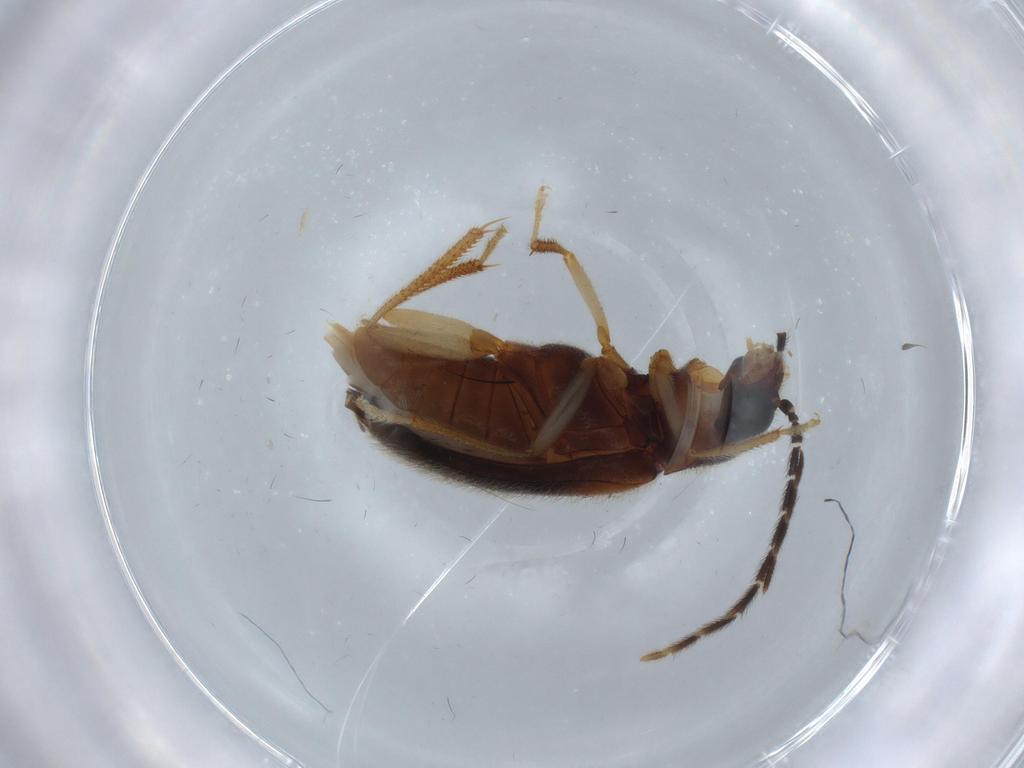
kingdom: Animalia
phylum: Arthropoda
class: Insecta
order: Coleoptera
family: Ptilodactylidae
